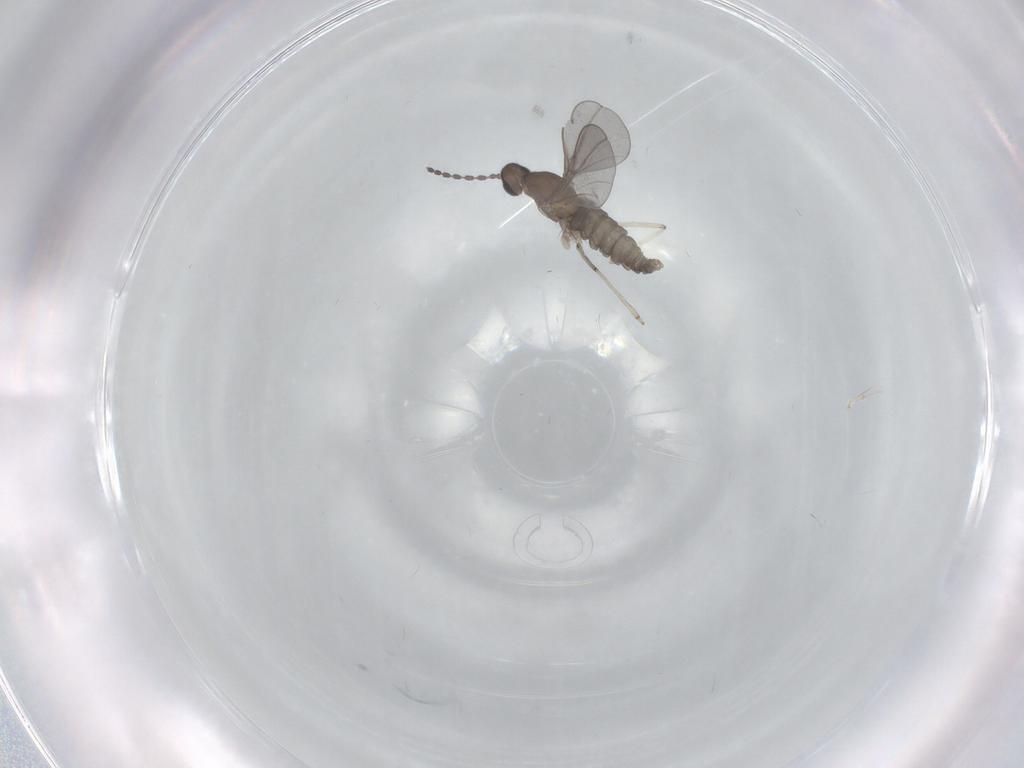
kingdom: Animalia
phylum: Arthropoda
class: Insecta
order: Diptera
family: Cecidomyiidae
